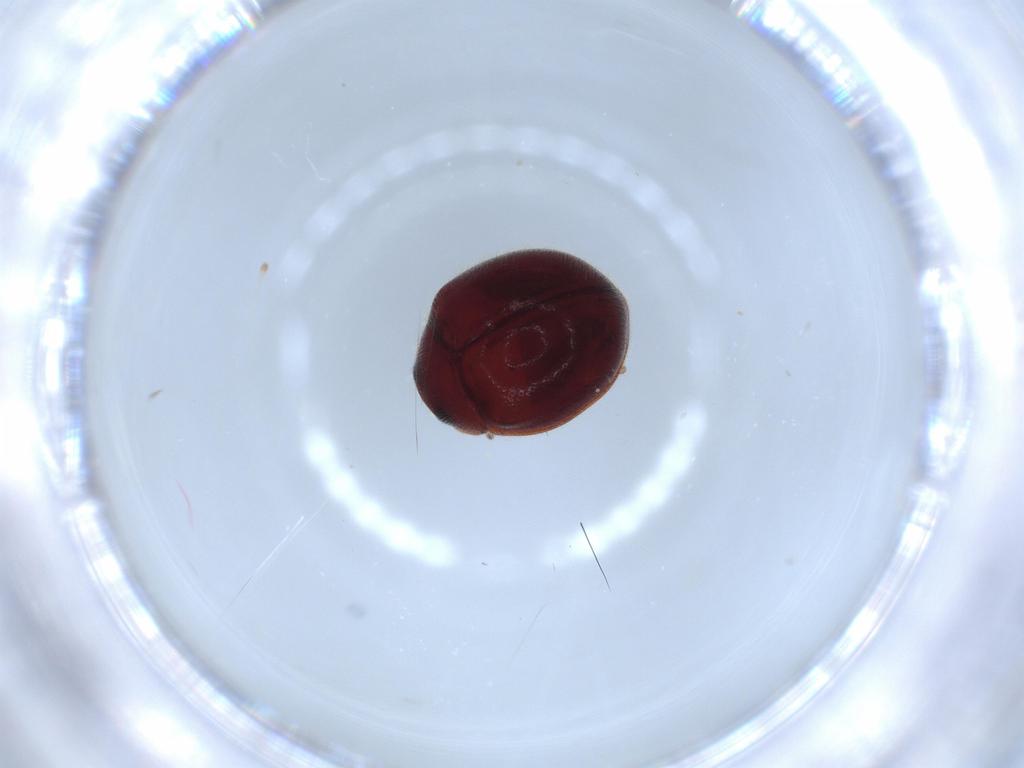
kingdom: Animalia
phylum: Arthropoda
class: Insecta
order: Coleoptera
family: Coccinellidae
